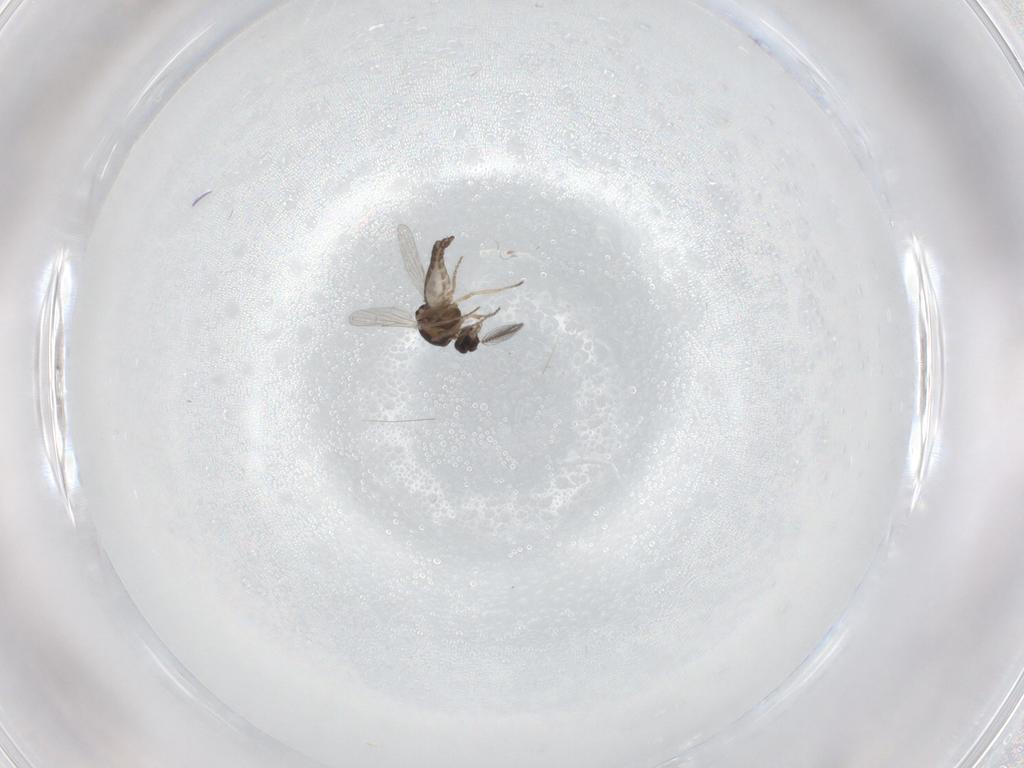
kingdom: Animalia
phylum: Arthropoda
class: Insecta
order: Diptera
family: Ceratopogonidae
